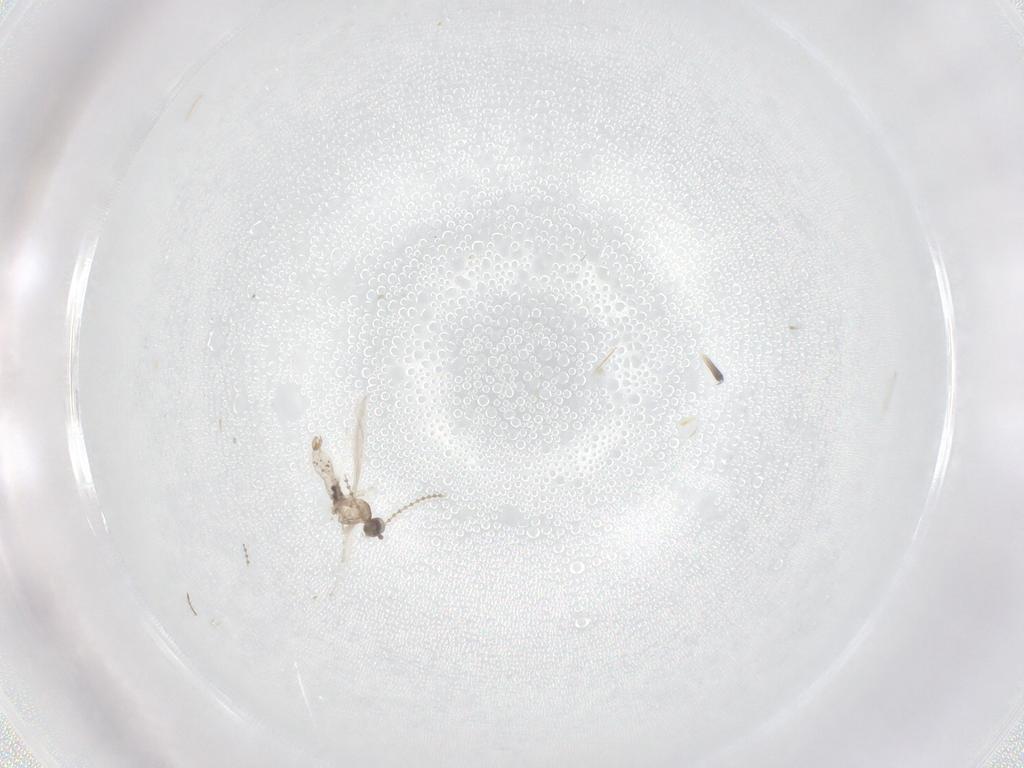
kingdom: Animalia
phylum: Arthropoda
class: Insecta
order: Diptera
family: Cecidomyiidae
